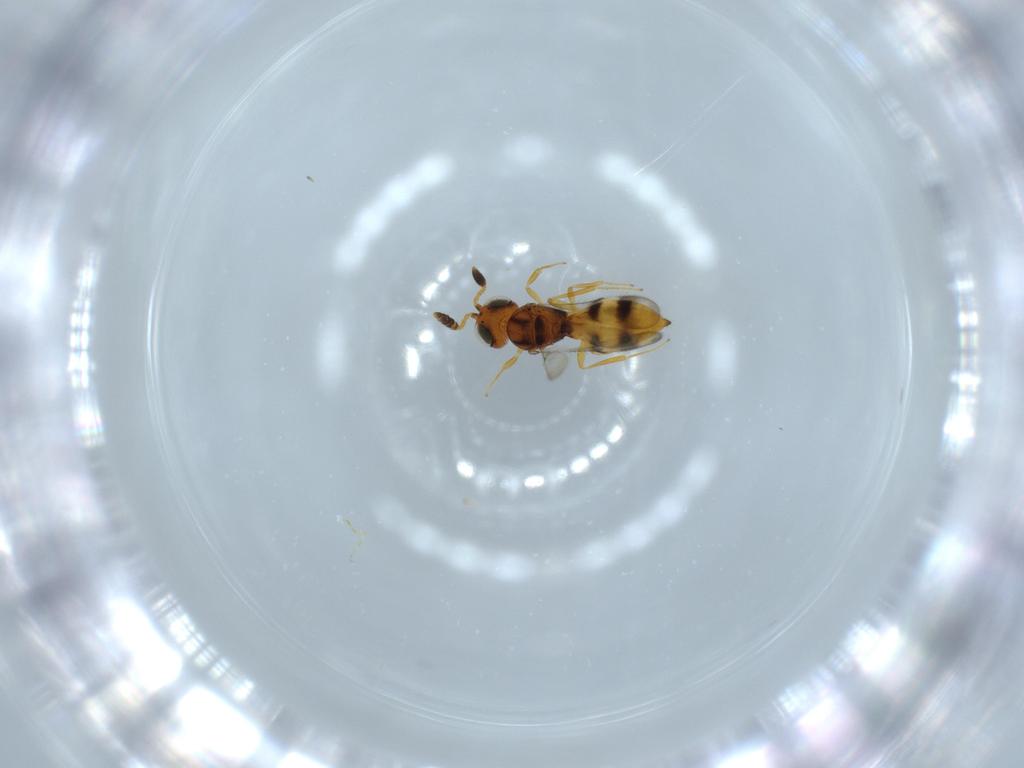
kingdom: Animalia
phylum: Arthropoda
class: Insecta
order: Hymenoptera
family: Scelionidae
